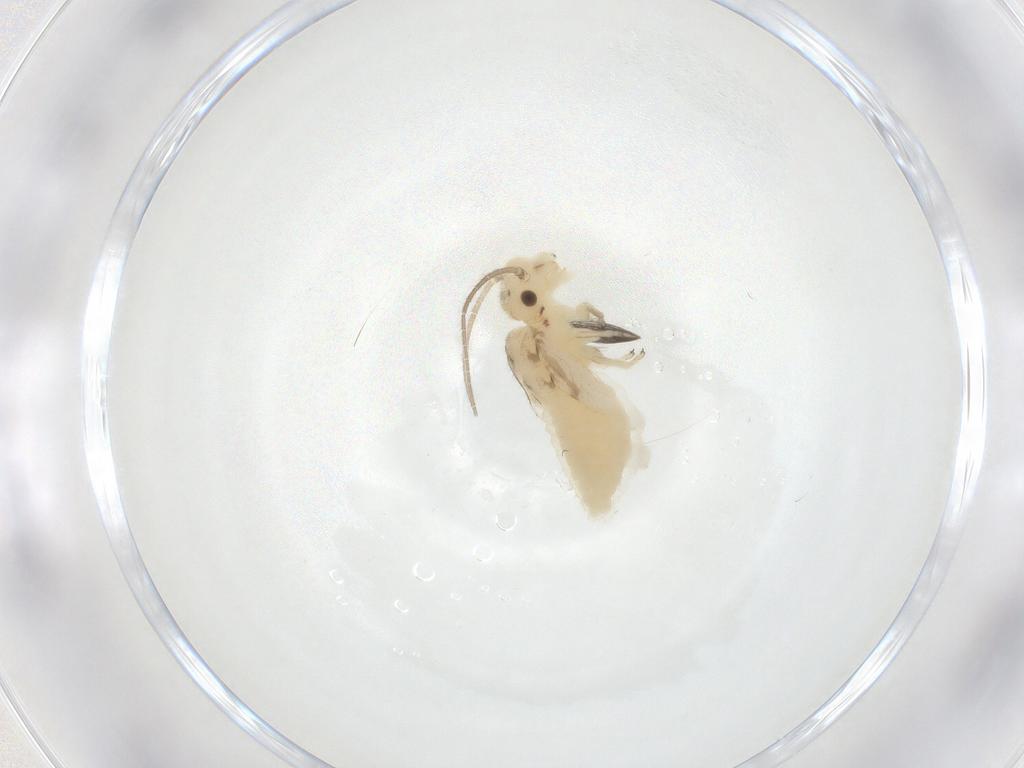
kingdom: Animalia
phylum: Arthropoda
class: Insecta
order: Psocodea
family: Caeciliusidae
